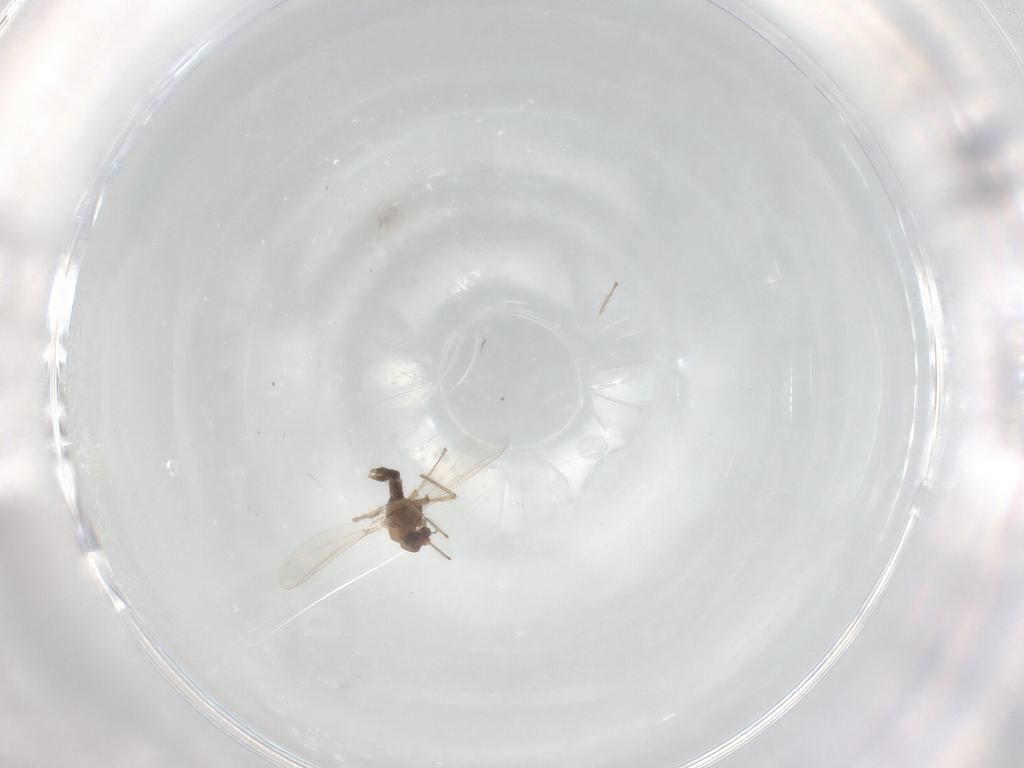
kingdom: Animalia
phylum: Arthropoda
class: Insecta
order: Diptera
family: Chironomidae
